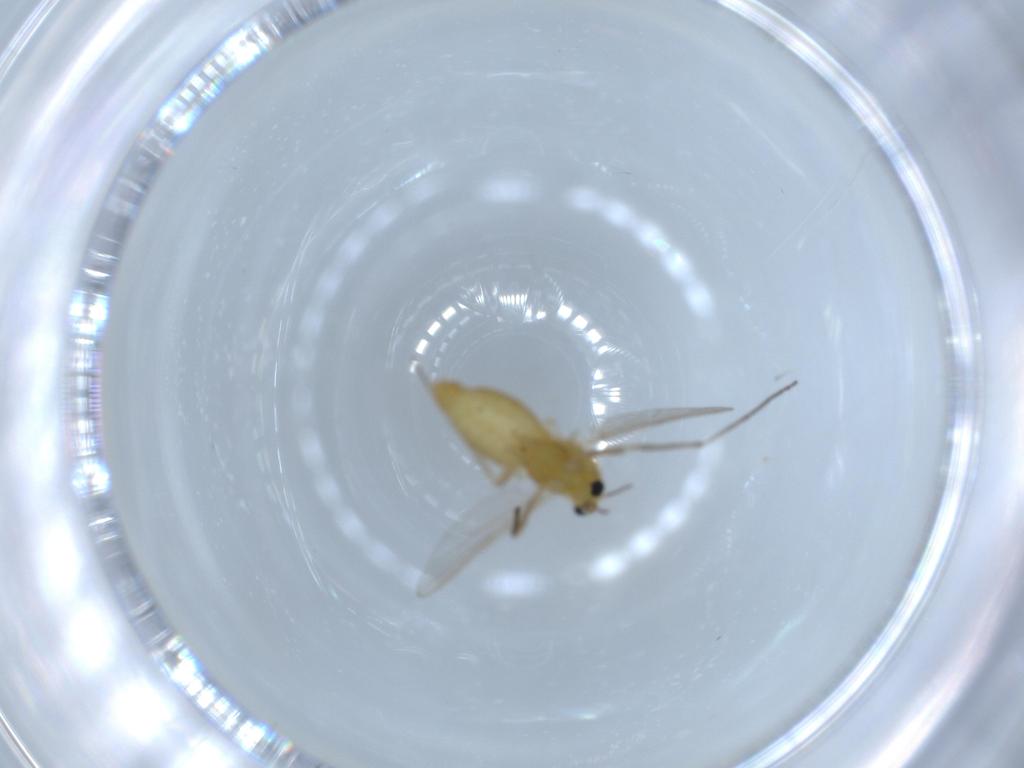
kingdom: Animalia
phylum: Arthropoda
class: Insecta
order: Diptera
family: Chironomidae
